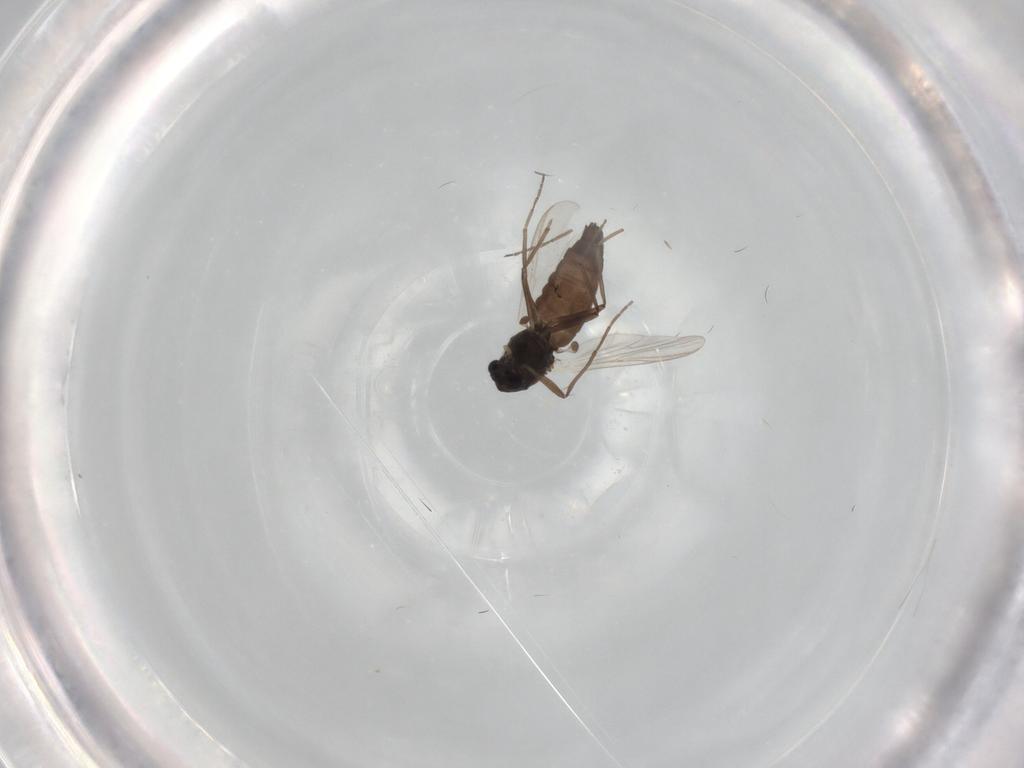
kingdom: Animalia
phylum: Arthropoda
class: Insecta
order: Diptera
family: Chironomidae
